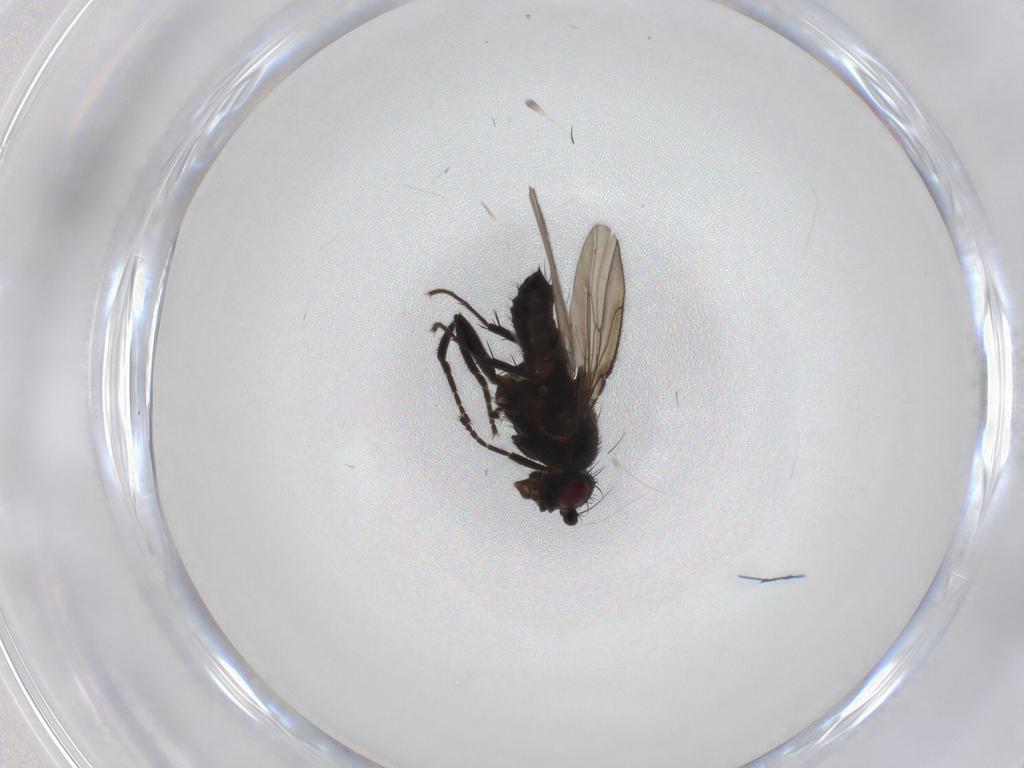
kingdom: Animalia
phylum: Arthropoda
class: Insecta
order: Diptera
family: Sphaeroceridae
